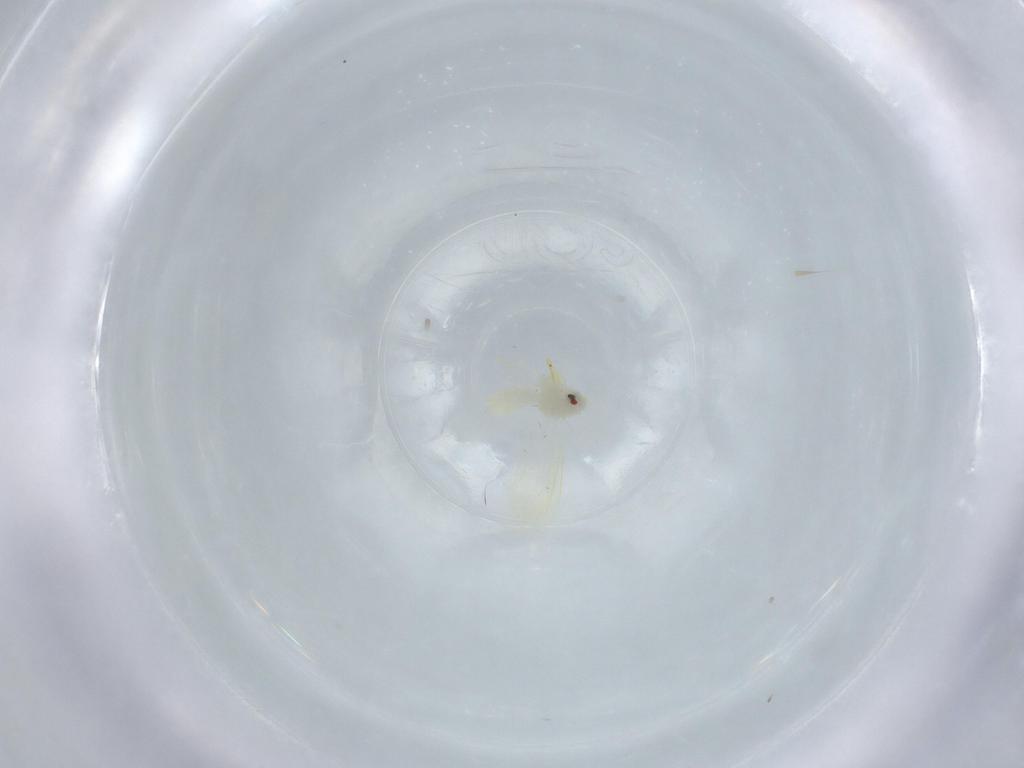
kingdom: Animalia
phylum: Arthropoda
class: Insecta
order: Hemiptera
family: Aleyrodidae
